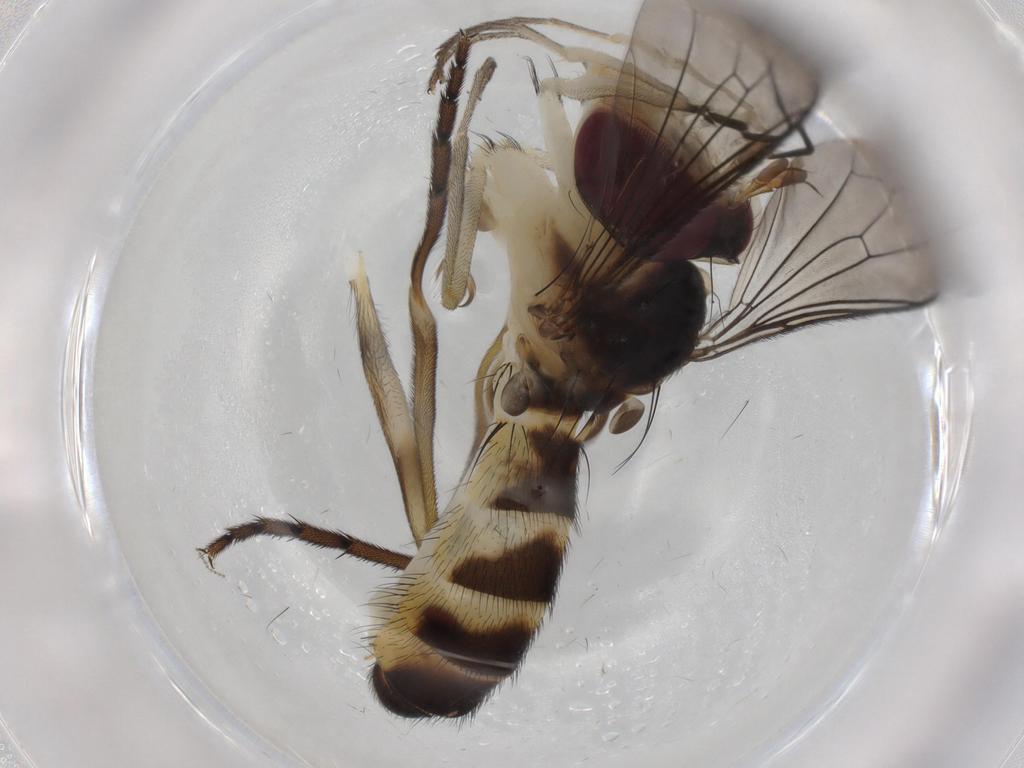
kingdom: Animalia
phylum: Arthropoda
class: Insecta
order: Diptera
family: Conopidae
